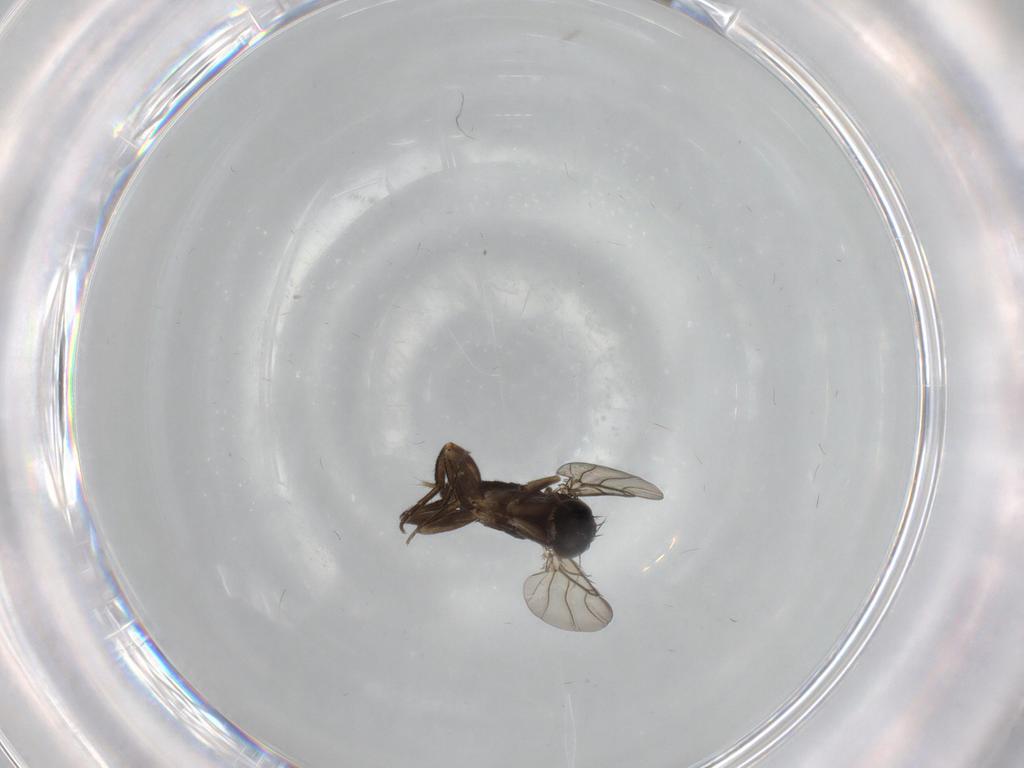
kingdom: Animalia
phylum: Arthropoda
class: Insecta
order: Diptera
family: Phoridae
